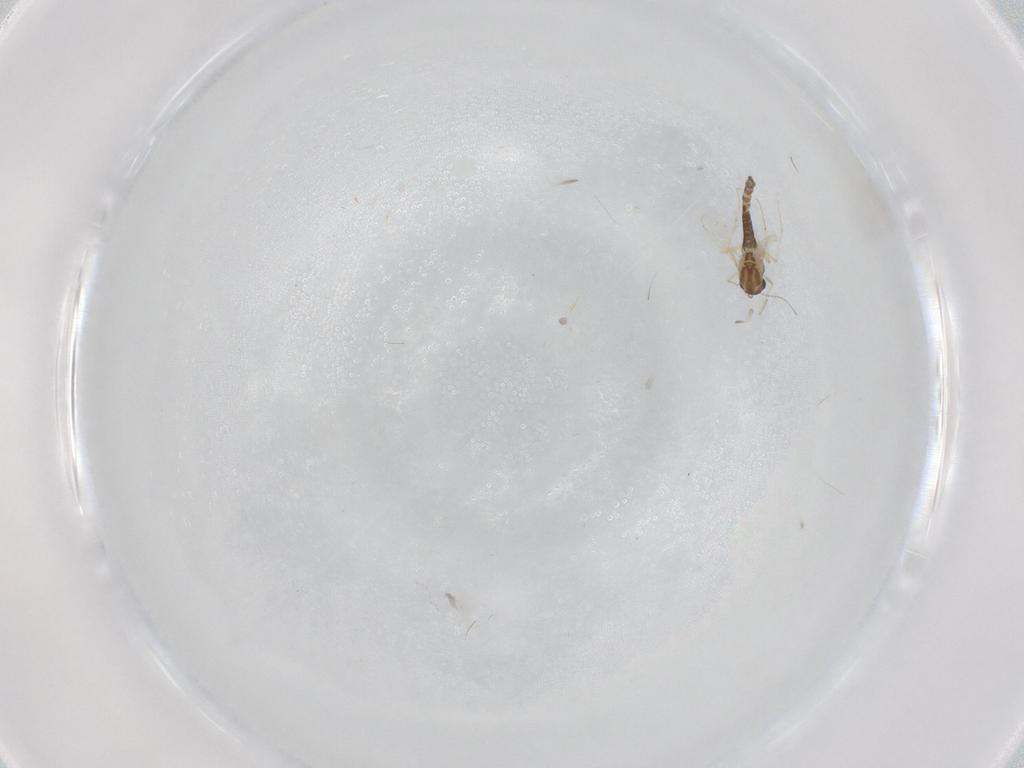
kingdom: Animalia
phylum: Arthropoda
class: Insecta
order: Diptera
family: Chironomidae
